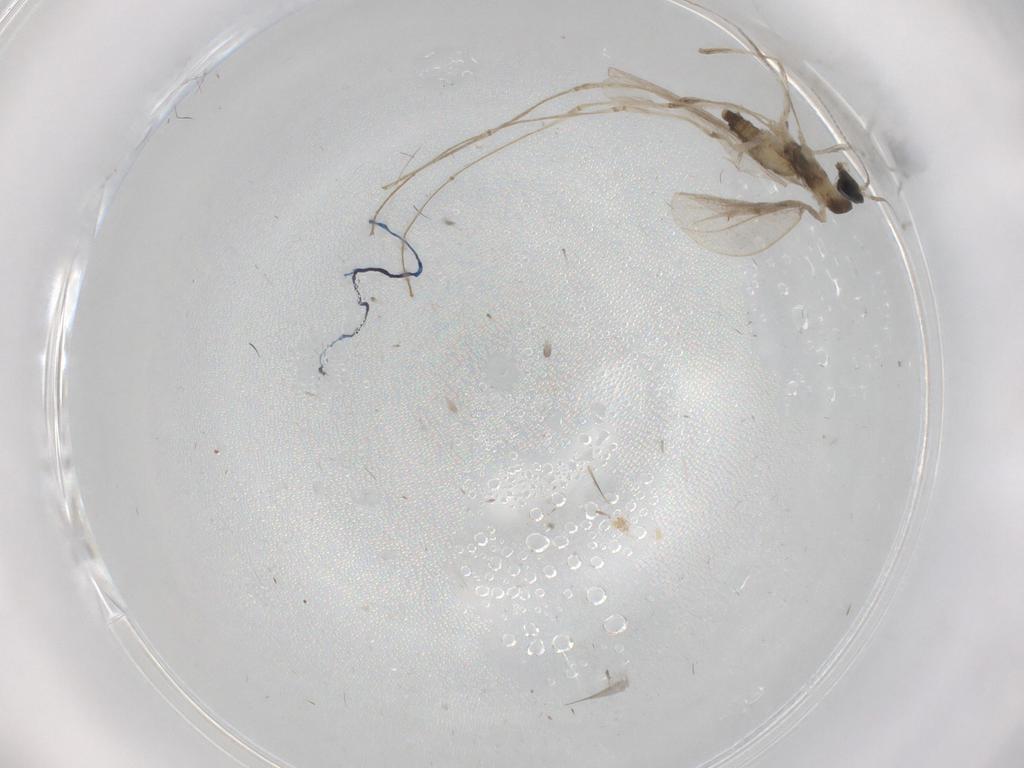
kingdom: Animalia
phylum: Arthropoda
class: Insecta
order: Diptera
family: Cecidomyiidae
